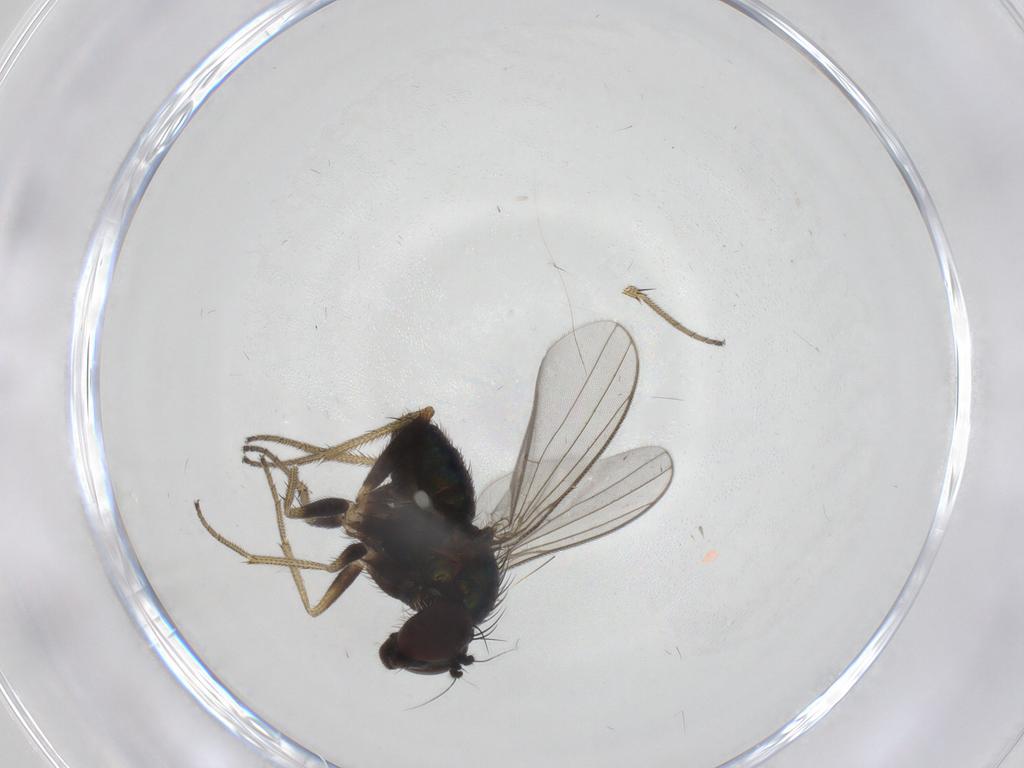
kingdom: Animalia
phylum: Arthropoda
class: Insecta
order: Diptera
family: Dolichopodidae
